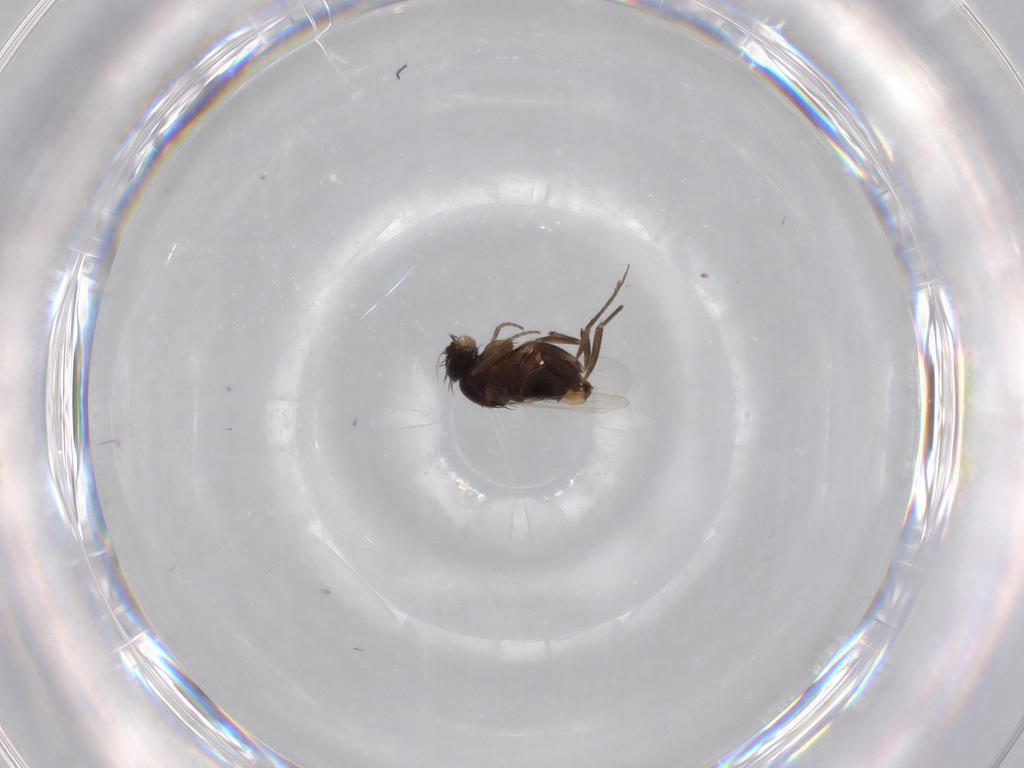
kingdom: Animalia
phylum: Arthropoda
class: Insecta
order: Diptera
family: Phoridae
